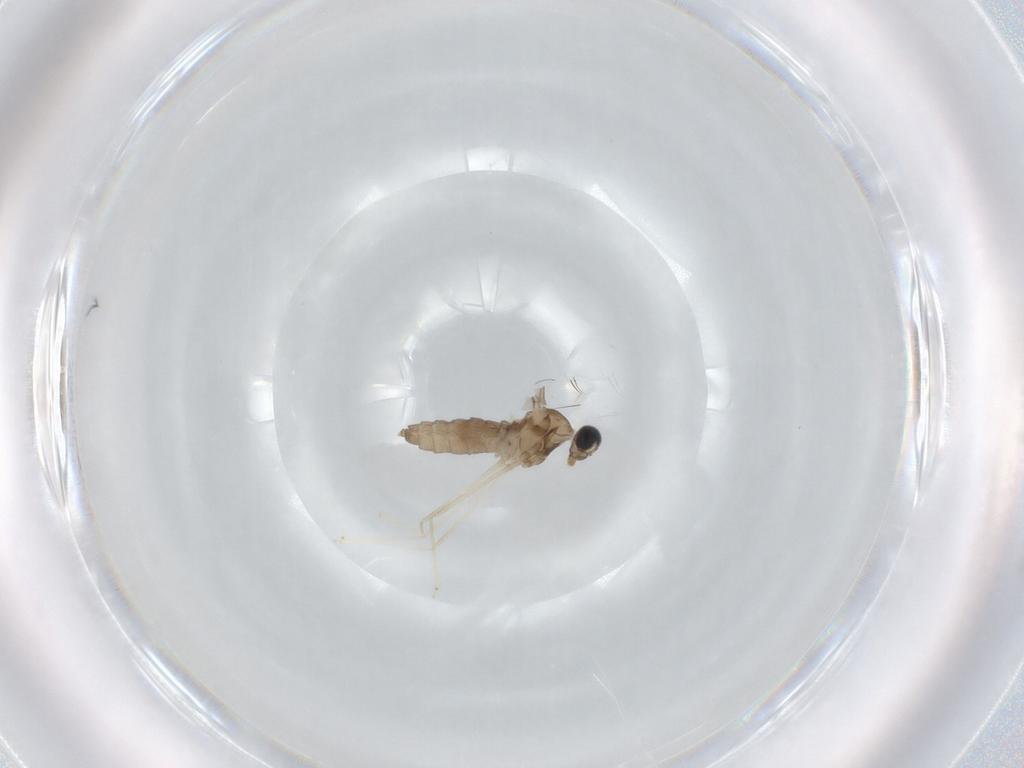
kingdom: Animalia
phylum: Arthropoda
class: Insecta
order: Diptera
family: Cecidomyiidae
